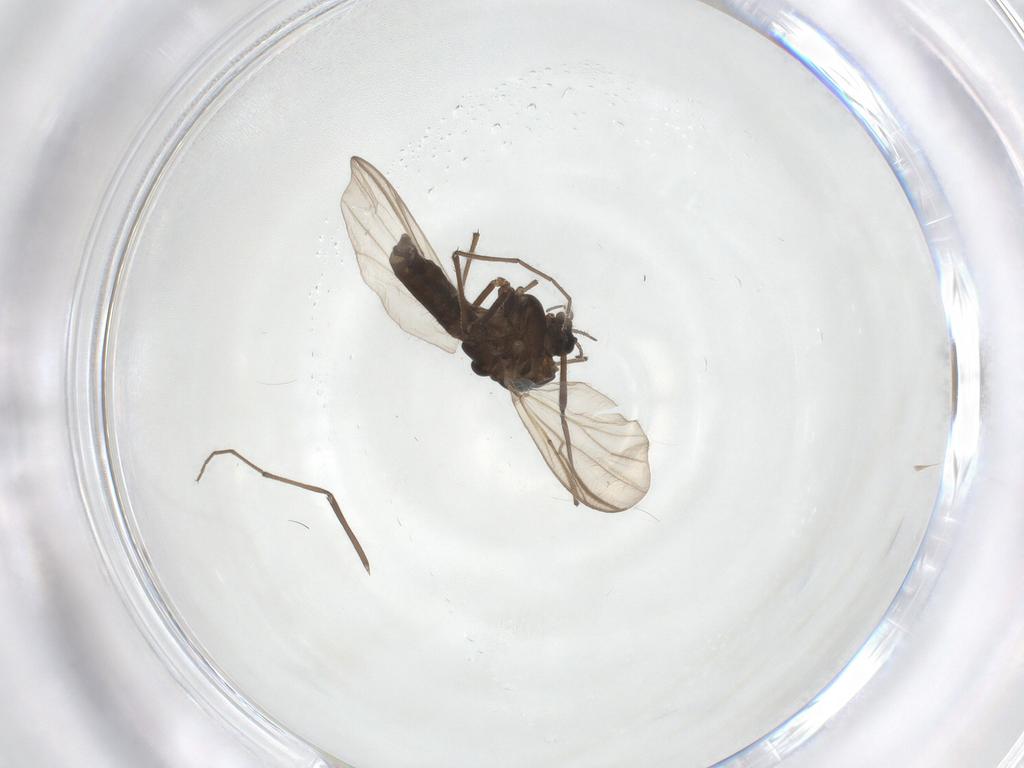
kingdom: Animalia
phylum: Arthropoda
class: Insecta
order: Diptera
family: Chironomidae
